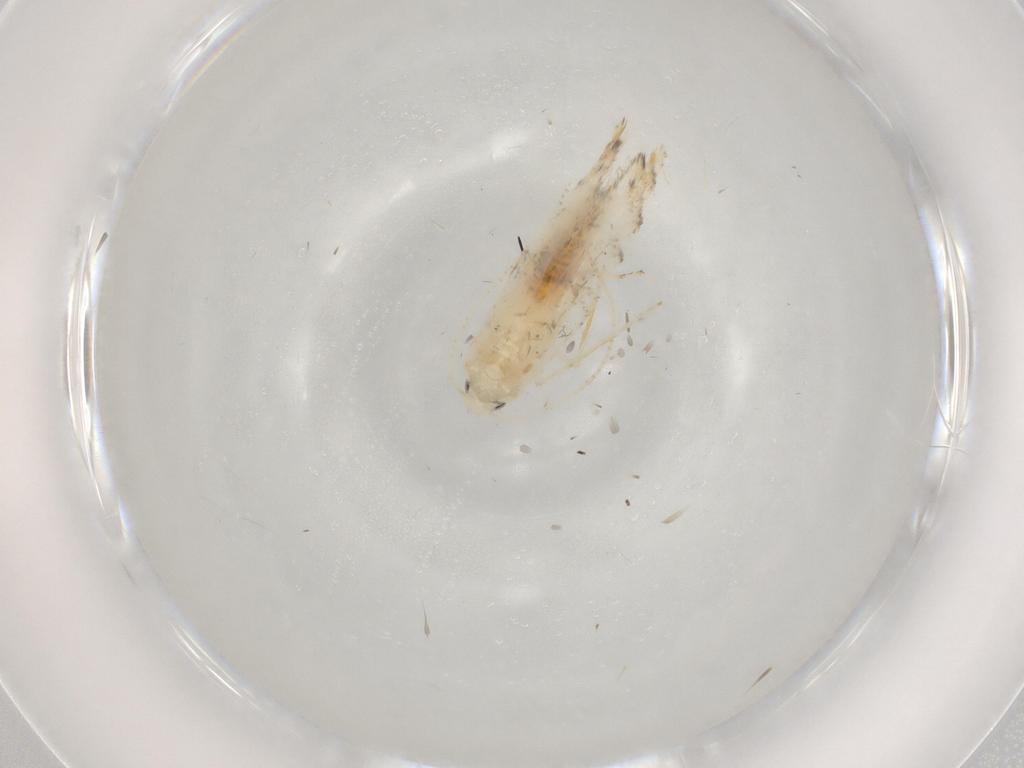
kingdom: Animalia
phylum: Arthropoda
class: Insecta
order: Lepidoptera
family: Gracillariidae
